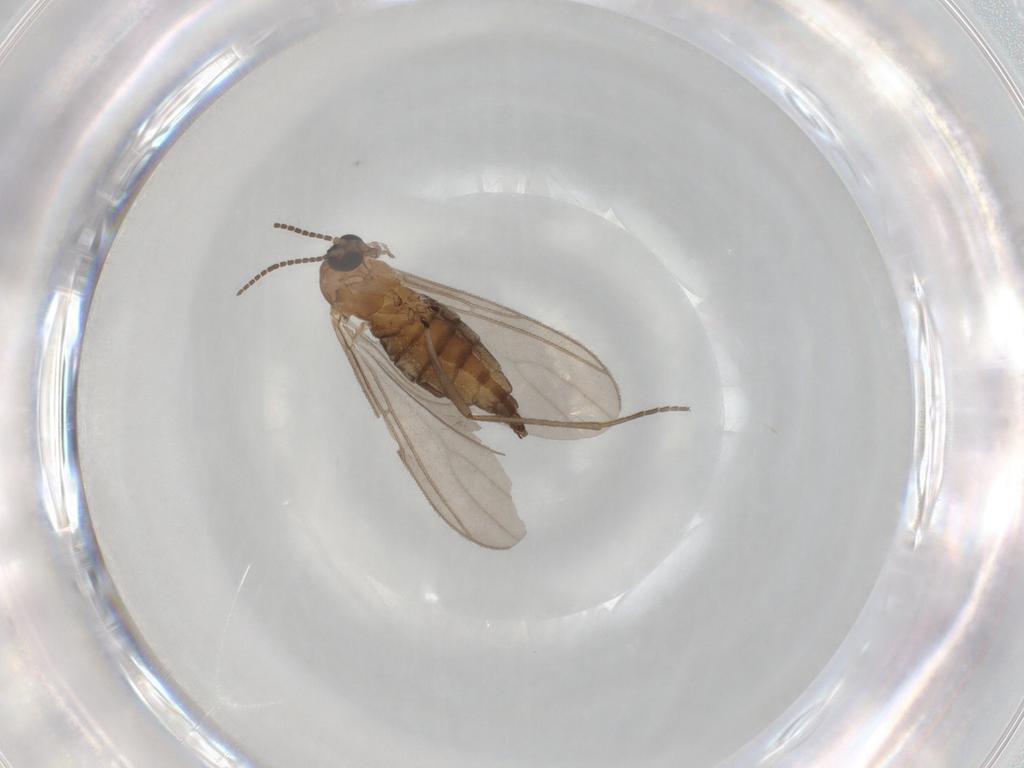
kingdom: Animalia
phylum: Arthropoda
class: Insecta
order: Diptera
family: Sciaridae
